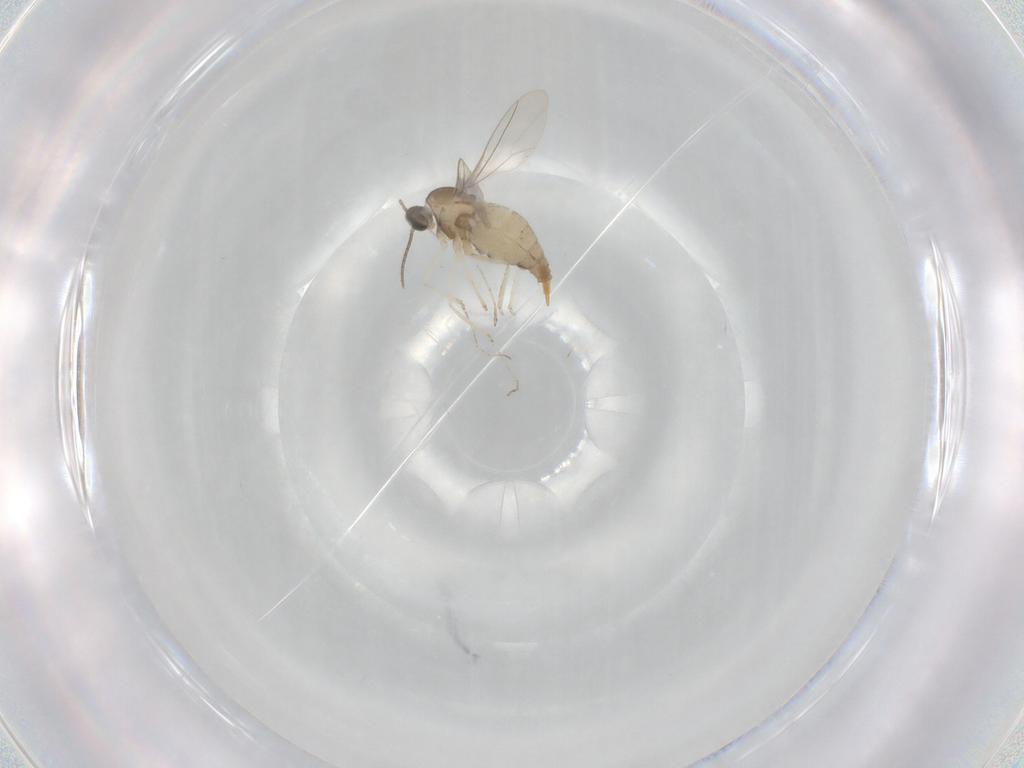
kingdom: Animalia
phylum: Arthropoda
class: Insecta
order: Diptera
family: Cecidomyiidae
